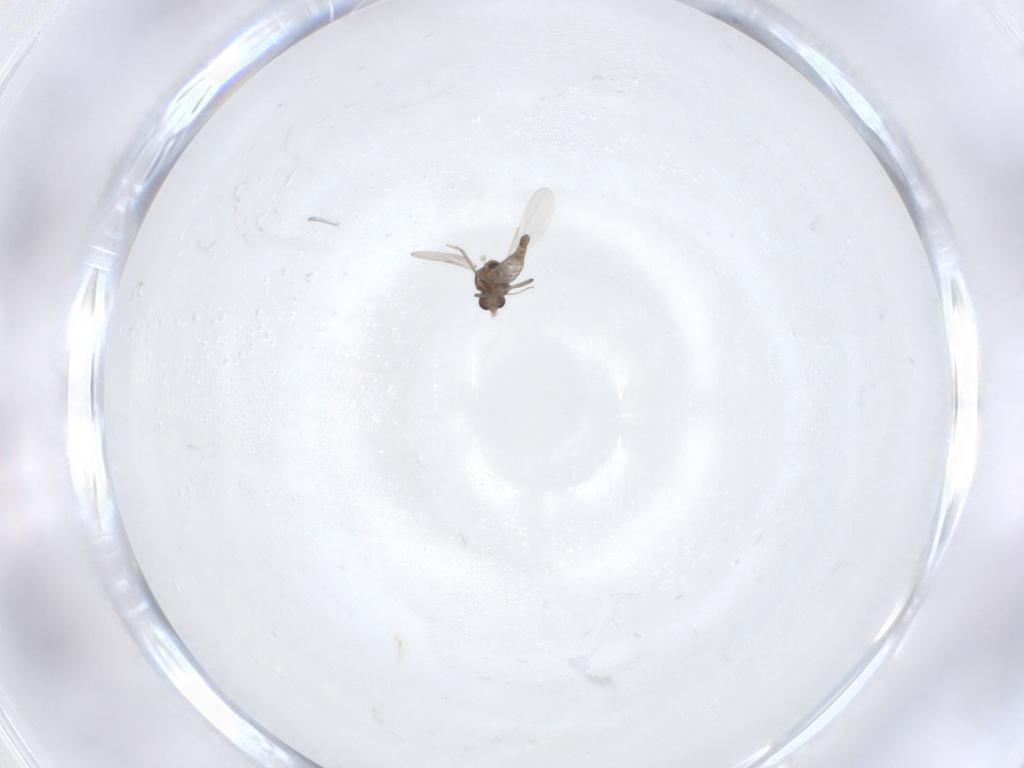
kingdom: Animalia
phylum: Arthropoda
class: Insecta
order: Diptera
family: Ceratopogonidae
